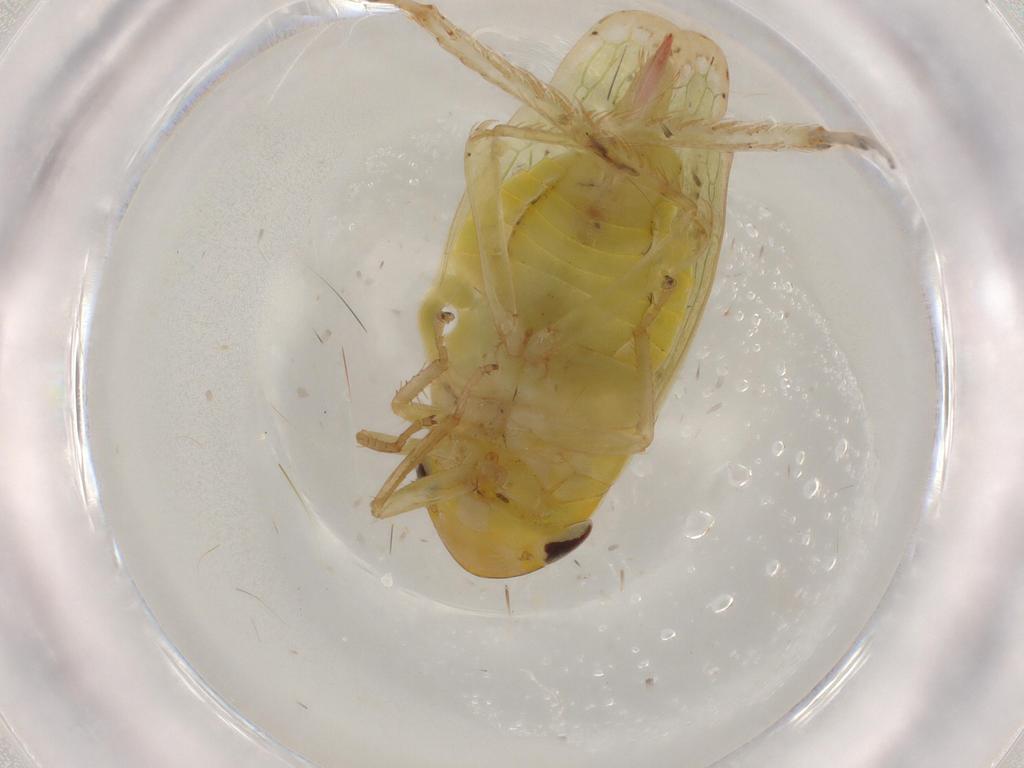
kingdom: Animalia
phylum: Arthropoda
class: Insecta
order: Hemiptera
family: Cicadellidae
